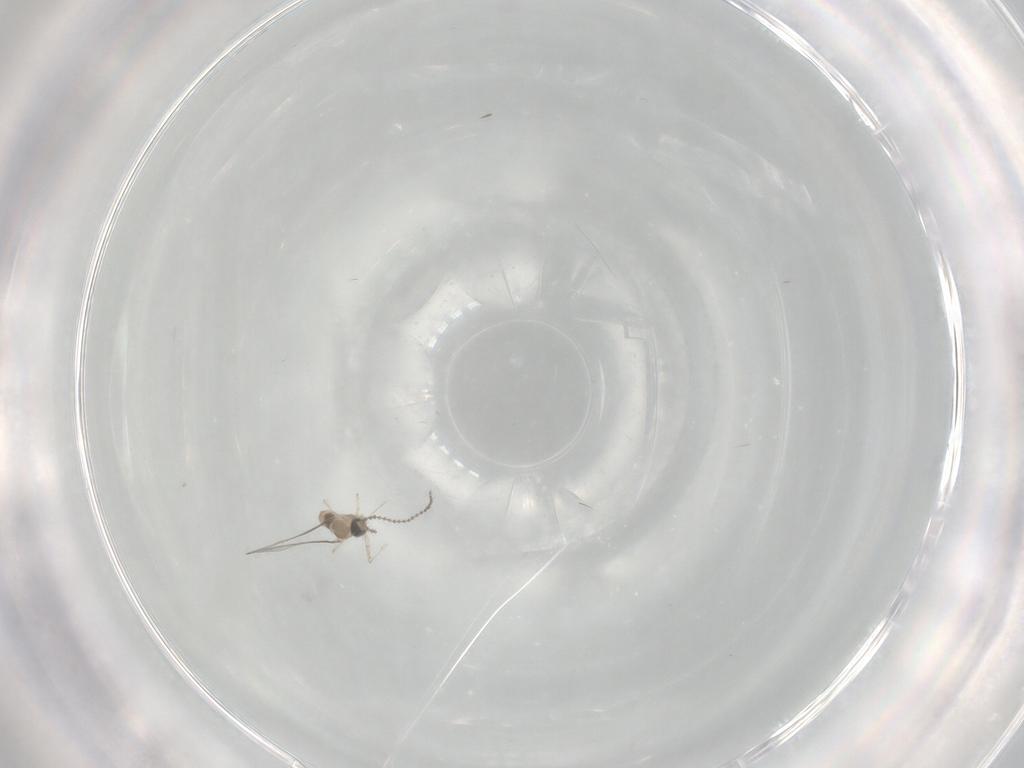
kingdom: Animalia
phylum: Arthropoda
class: Insecta
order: Diptera
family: Cecidomyiidae
